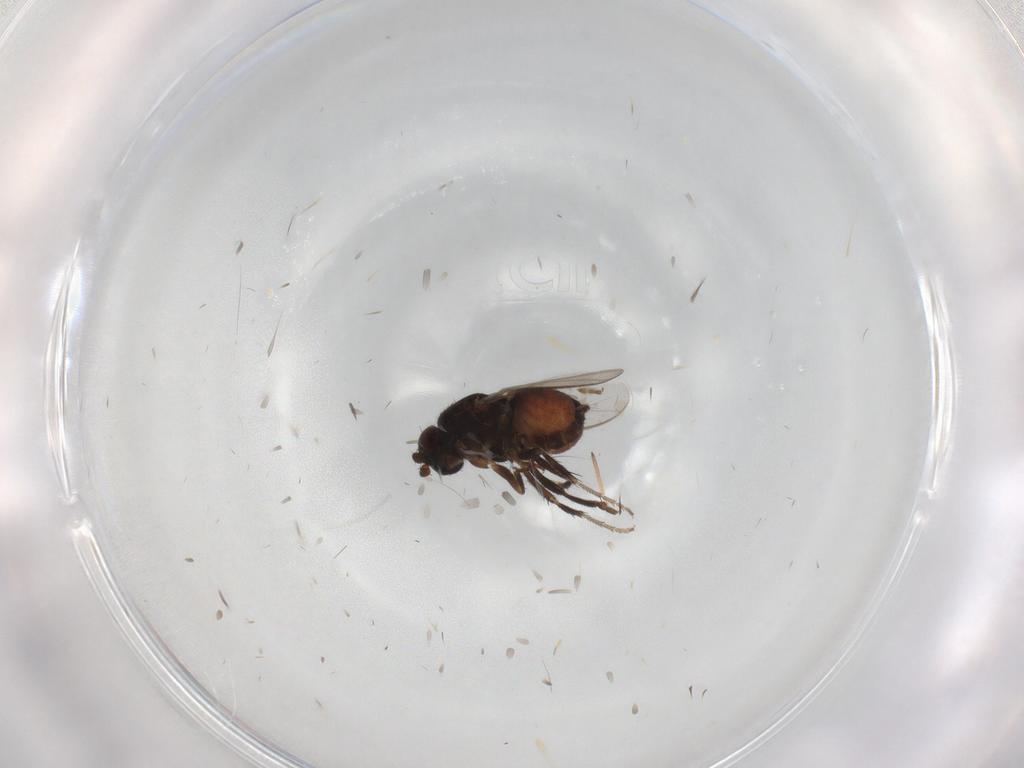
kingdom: Animalia
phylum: Arthropoda
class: Insecta
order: Diptera
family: Sphaeroceridae
